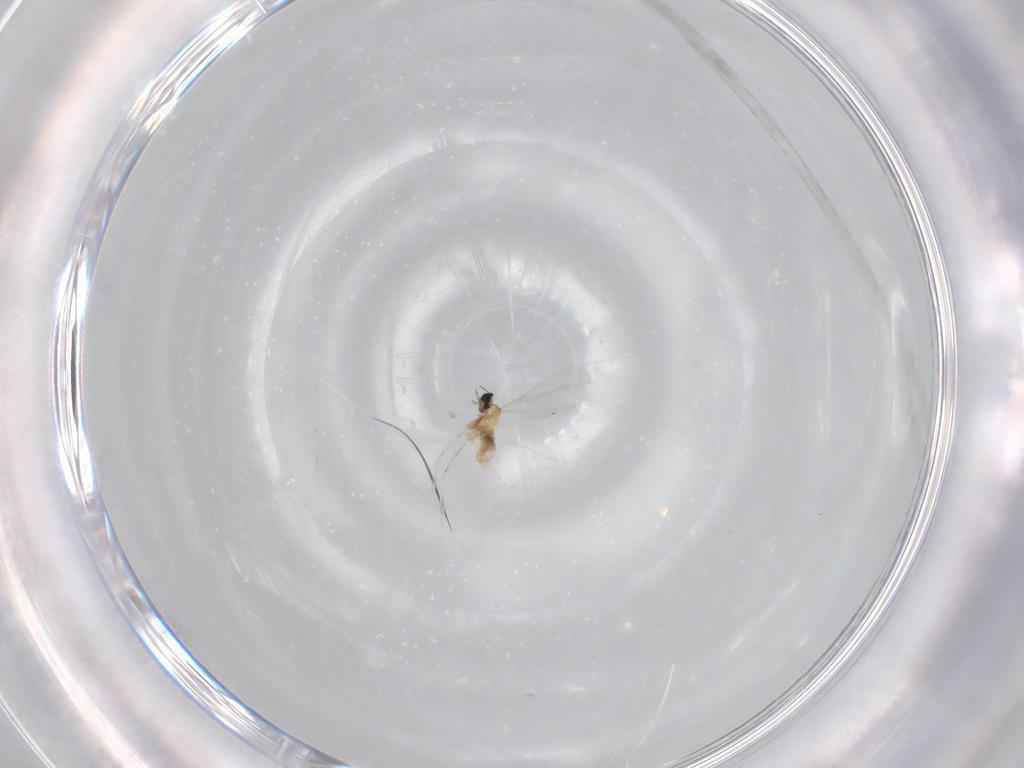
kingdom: Animalia
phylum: Arthropoda
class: Insecta
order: Diptera
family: Cecidomyiidae
